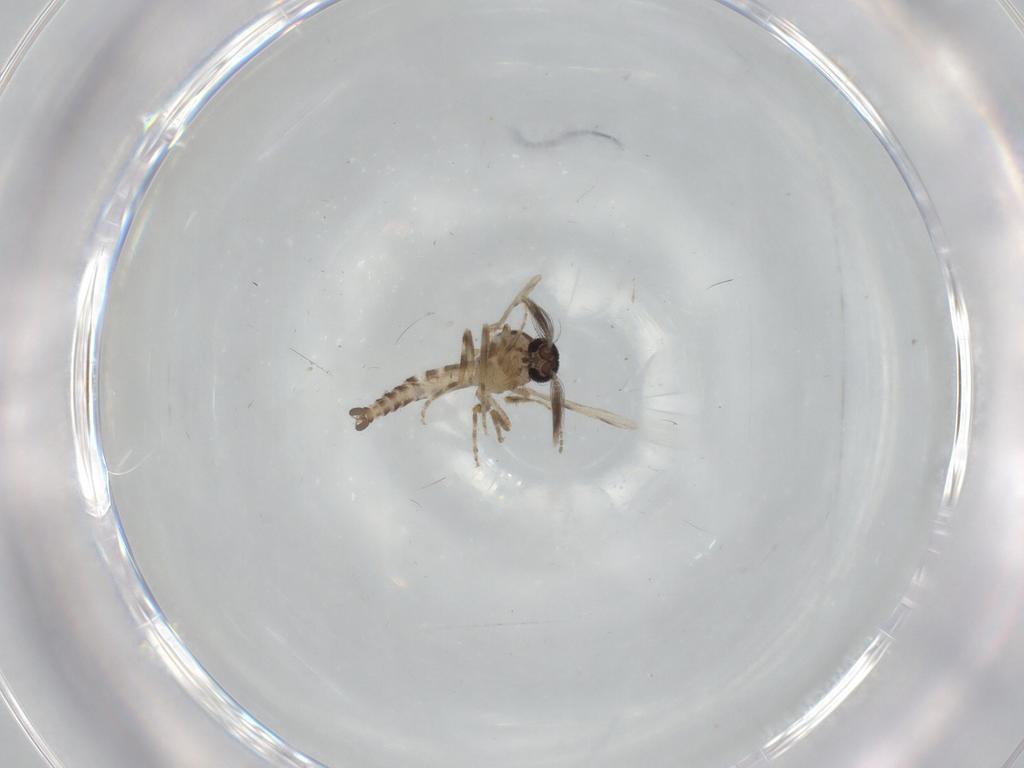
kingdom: Animalia
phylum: Arthropoda
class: Insecta
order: Diptera
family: Ceratopogonidae
